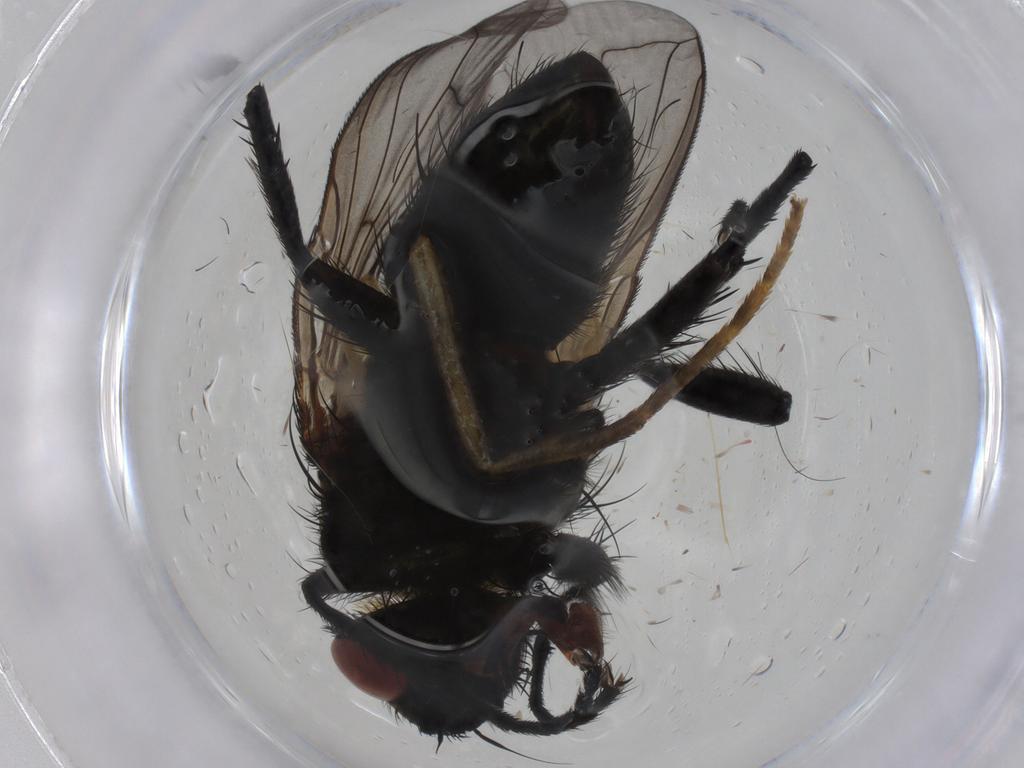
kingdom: Animalia
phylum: Arthropoda
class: Insecta
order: Diptera
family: Tachinidae
